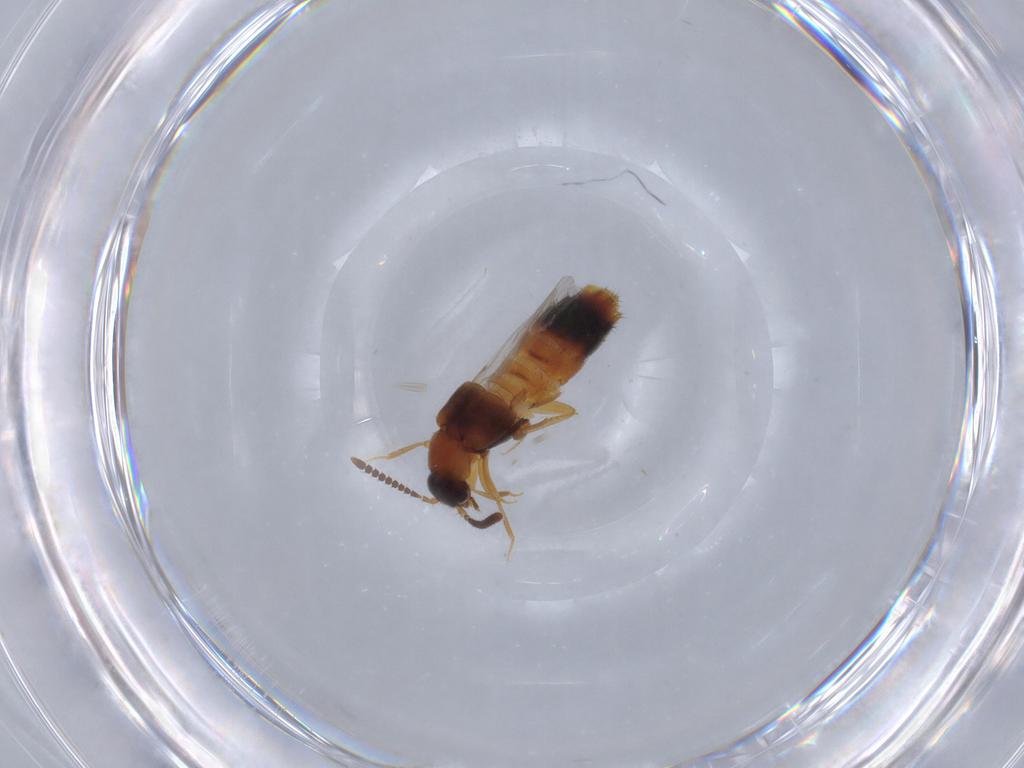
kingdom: Animalia
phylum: Arthropoda
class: Insecta
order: Coleoptera
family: Staphylinidae
